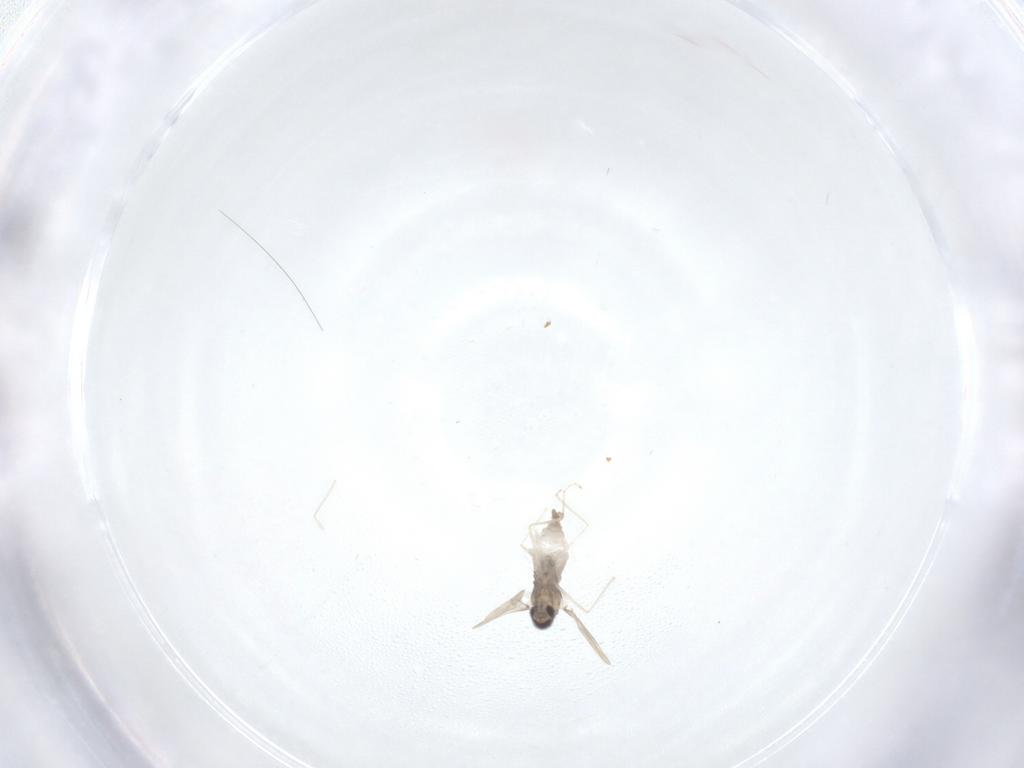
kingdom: Animalia
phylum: Arthropoda
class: Insecta
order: Diptera
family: Cecidomyiidae
